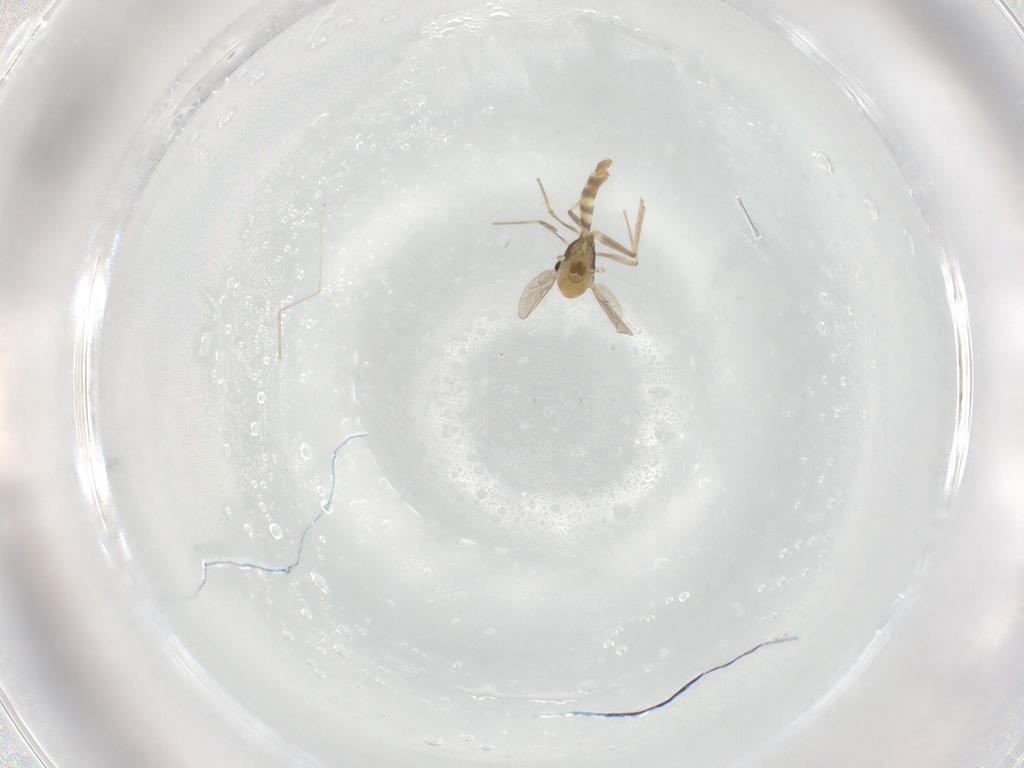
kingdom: Animalia
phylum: Arthropoda
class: Insecta
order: Diptera
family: Chironomidae
